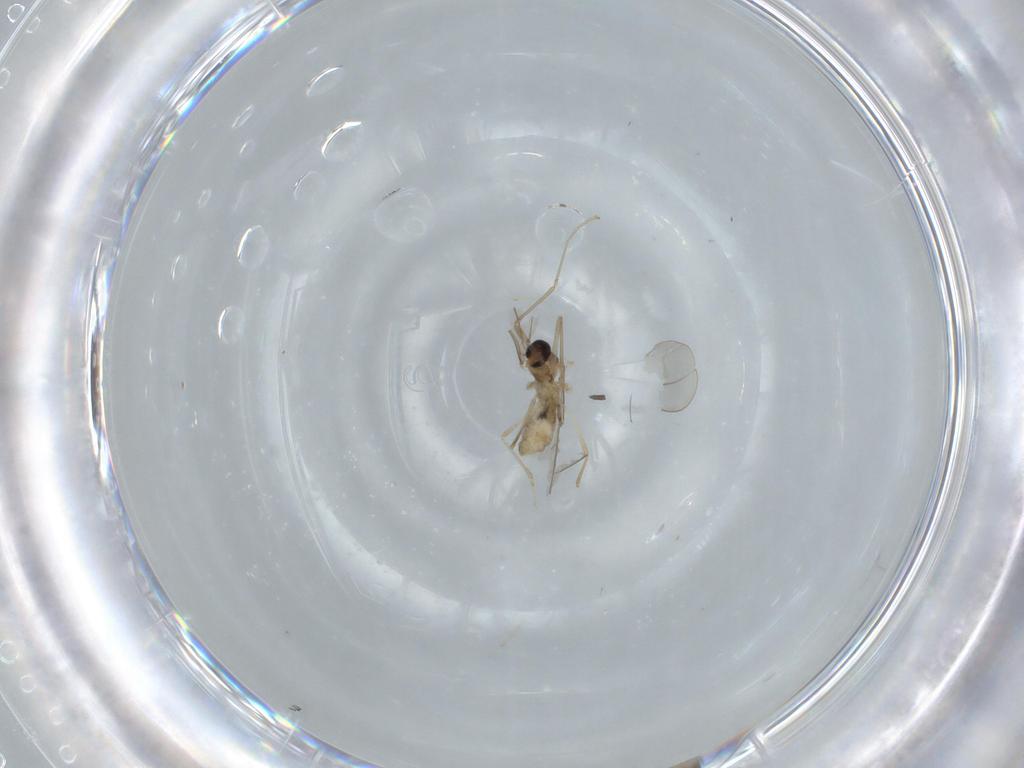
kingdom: Animalia
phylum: Arthropoda
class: Insecta
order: Diptera
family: Cecidomyiidae
